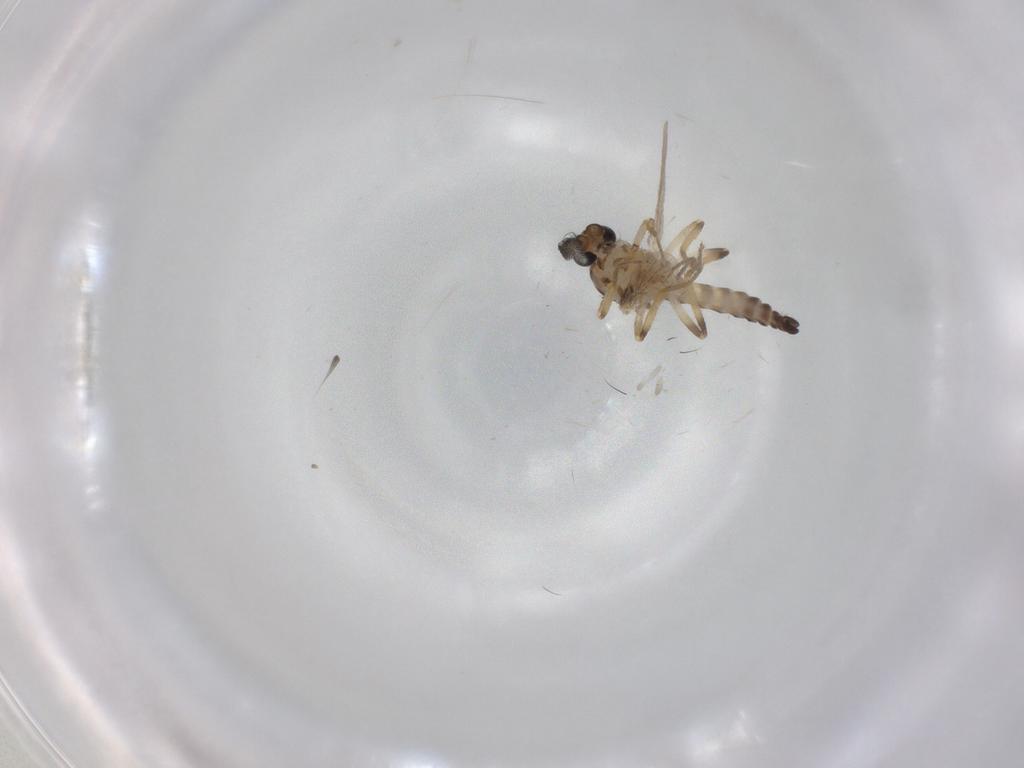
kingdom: Animalia
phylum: Arthropoda
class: Insecta
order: Diptera
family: Ceratopogonidae
